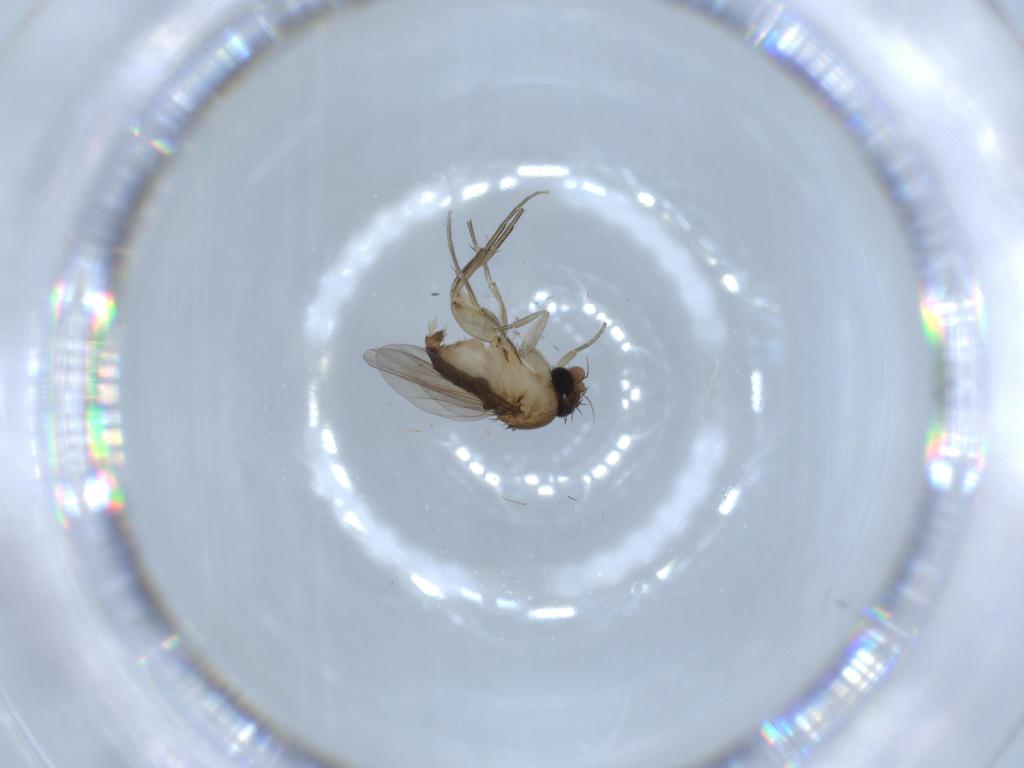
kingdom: Animalia
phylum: Arthropoda
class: Insecta
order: Diptera
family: Phoridae
